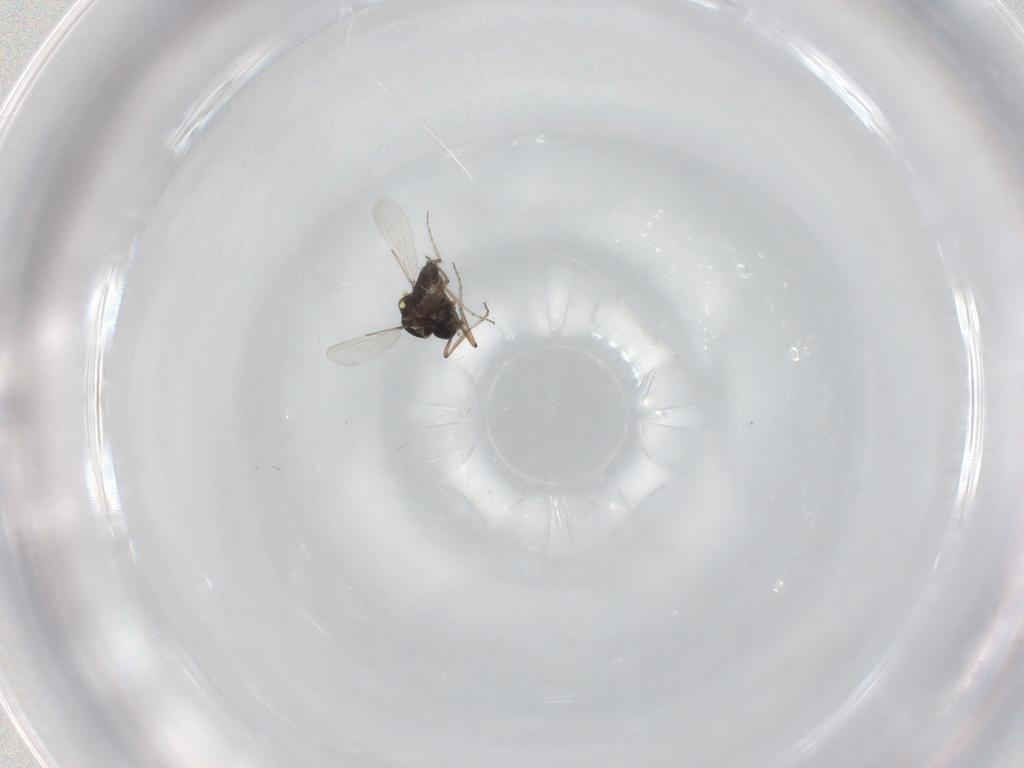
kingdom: Animalia
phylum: Arthropoda
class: Insecta
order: Diptera
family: Ceratopogonidae
